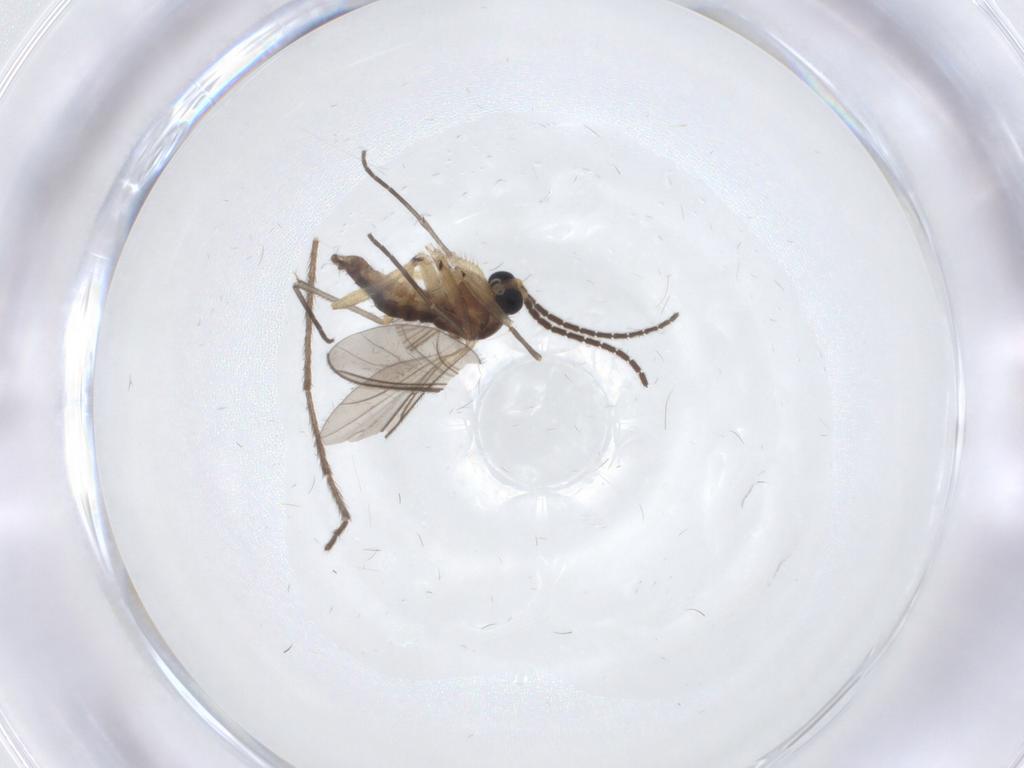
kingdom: Animalia
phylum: Arthropoda
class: Insecta
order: Diptera
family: Sciaridae
